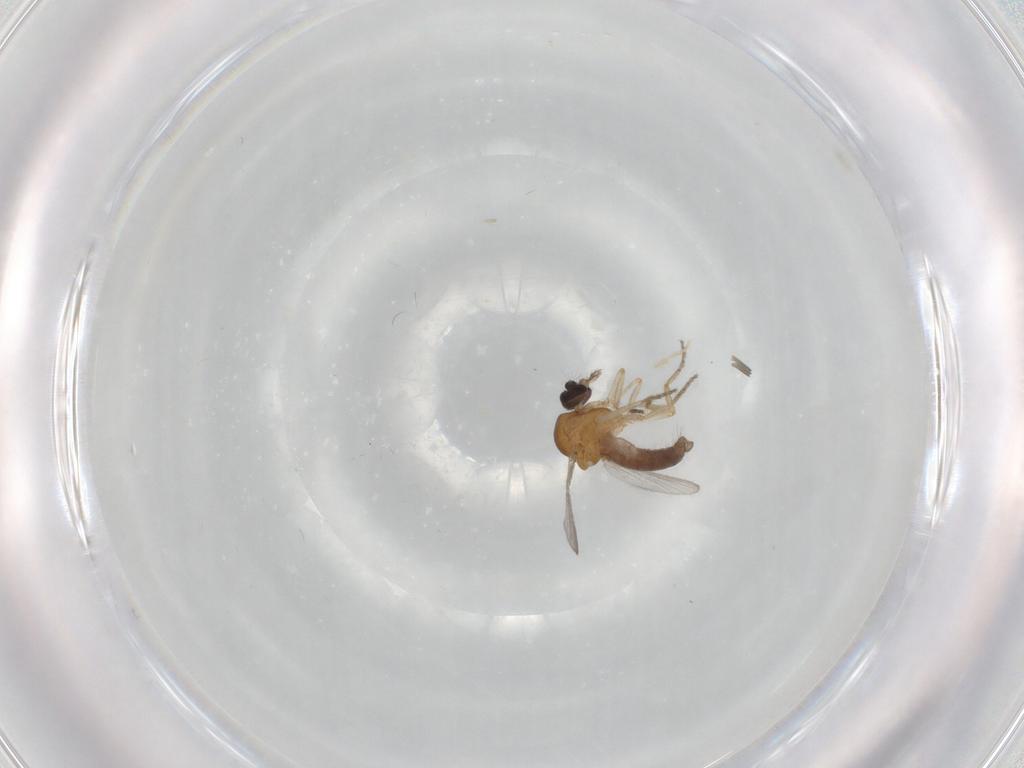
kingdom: Animalia
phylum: Arthropoda
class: Insecta
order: Diptera
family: Ceratopogonidae
